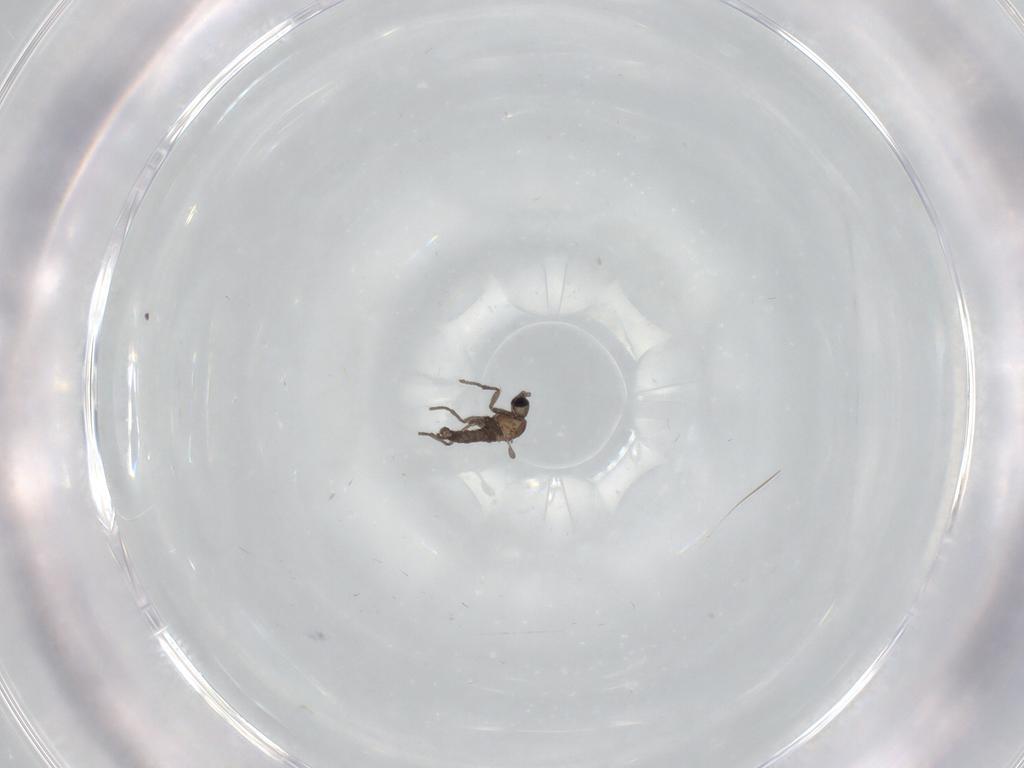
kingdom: Animalia
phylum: Arthropoda
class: Insecta
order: Diptera
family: Cecidomyiidae
